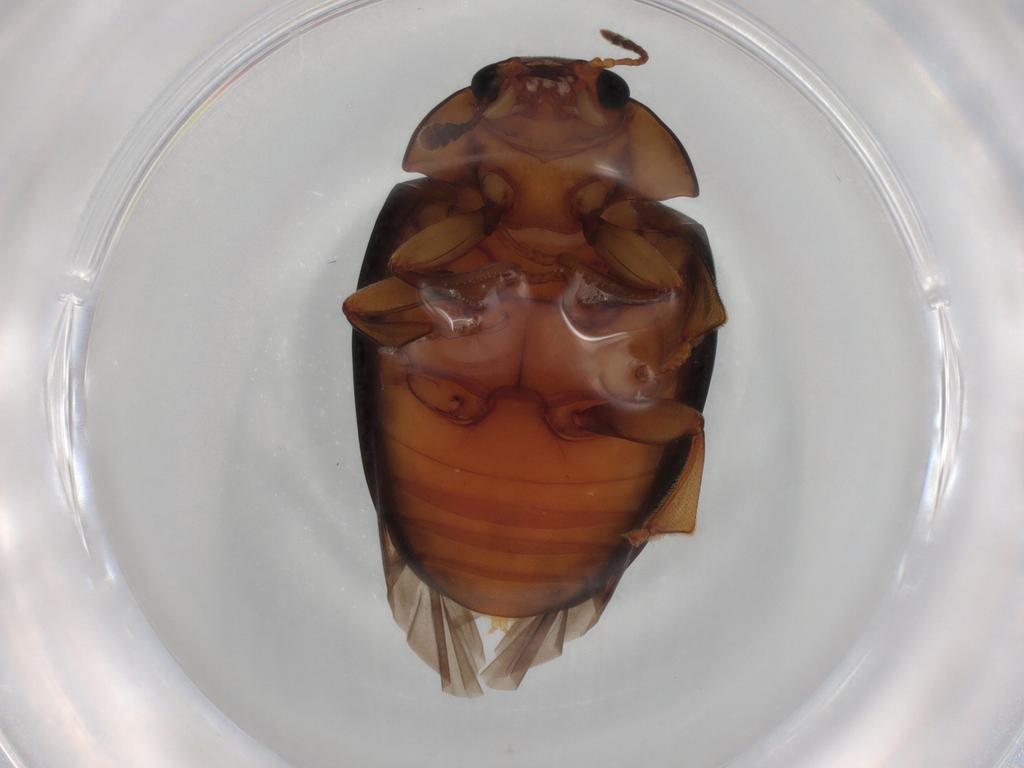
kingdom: Animalia
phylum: Arthropoda
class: Insecta
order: Coleoptera
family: Erotylidae
